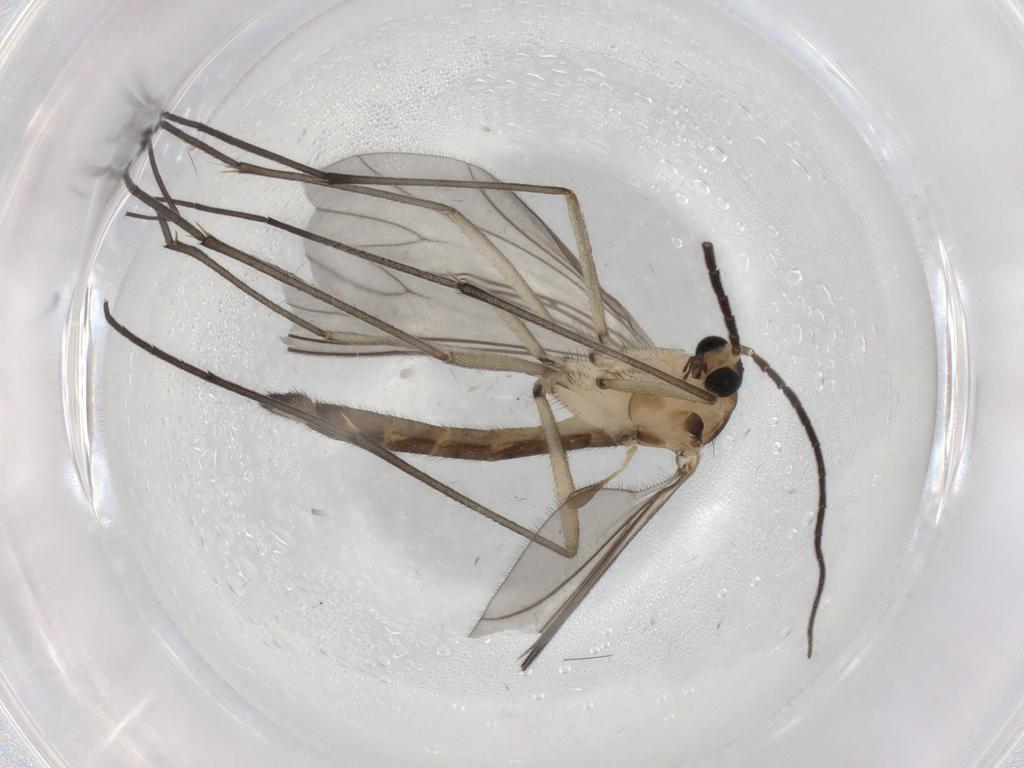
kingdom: Animalia
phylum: Arthropoda
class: Insecta
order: Diptera
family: Sciaridae
